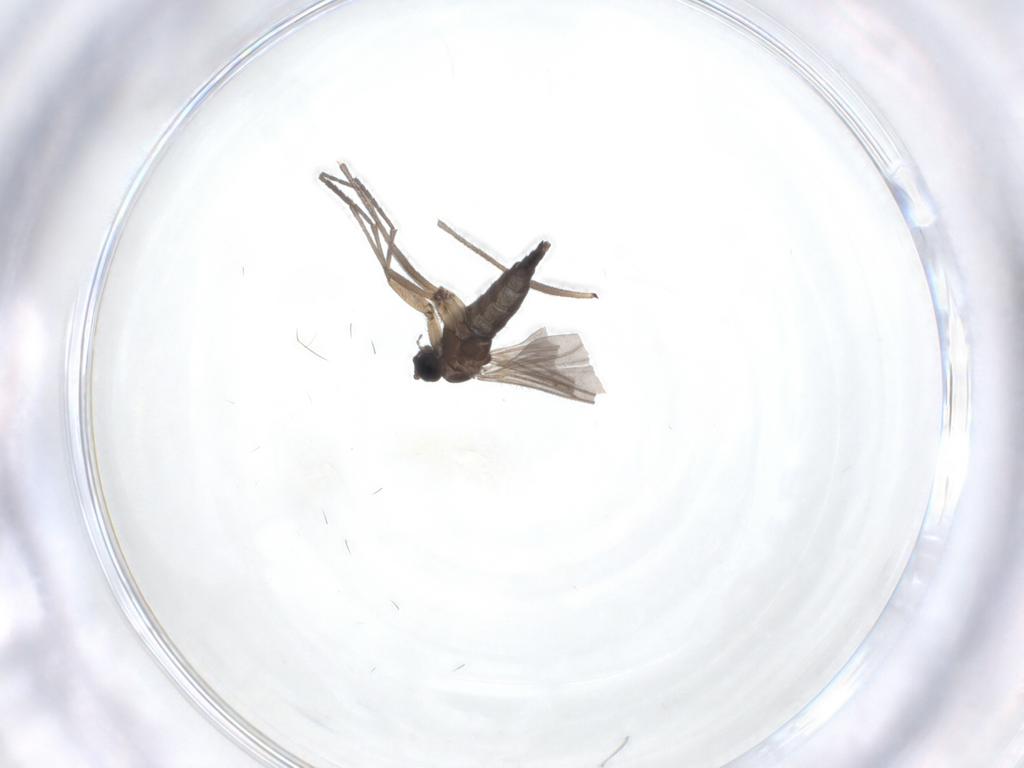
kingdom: Animalia
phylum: Arthropoda
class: Insecta
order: Diptera
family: Sciaridae
